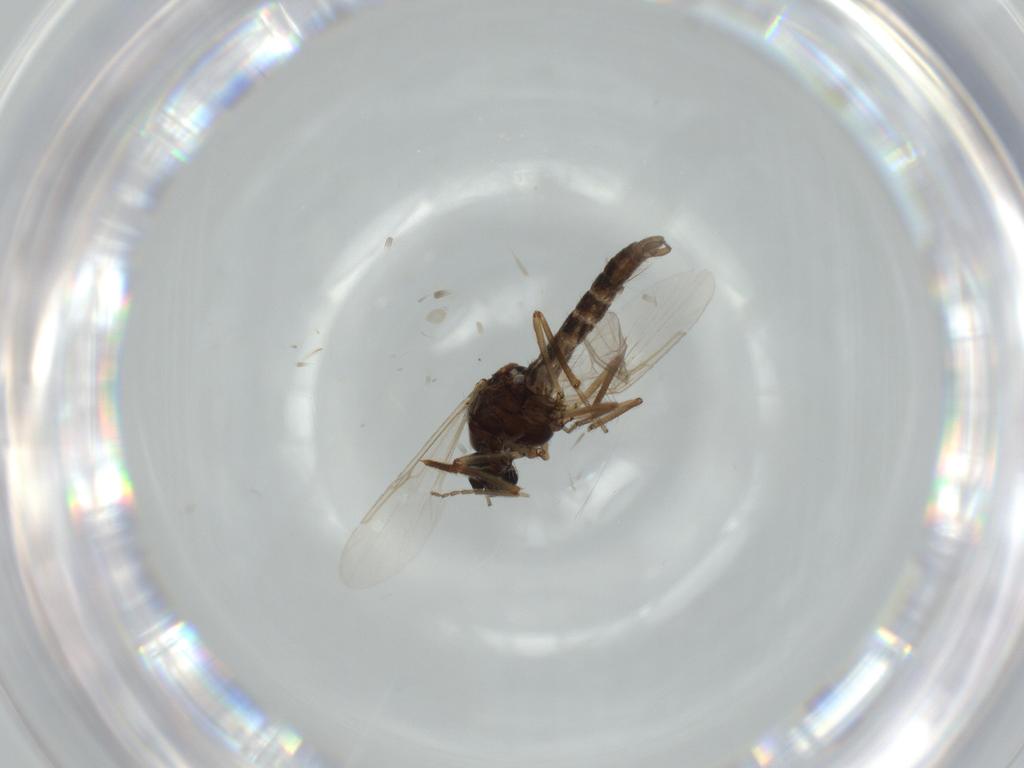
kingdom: Animalia
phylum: Arthropoda
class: Insecta
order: Diptera
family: Ceratopogonidae
